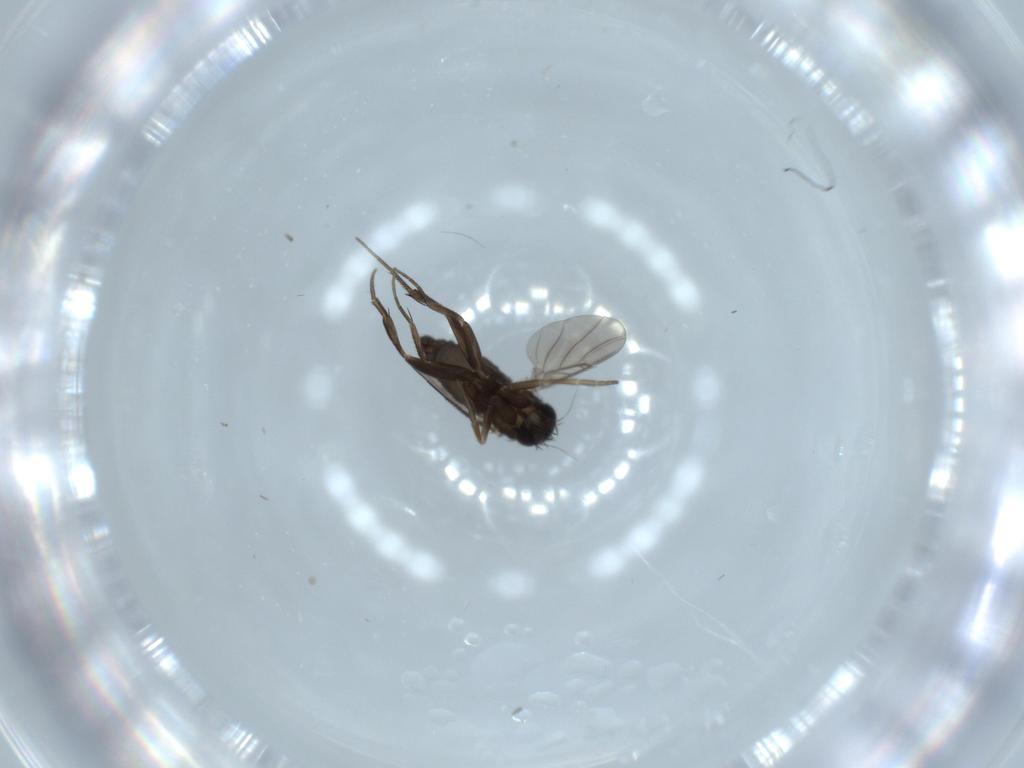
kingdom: Animalia
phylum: Arthropoda
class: Insecta
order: Diptera
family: Phoridae
